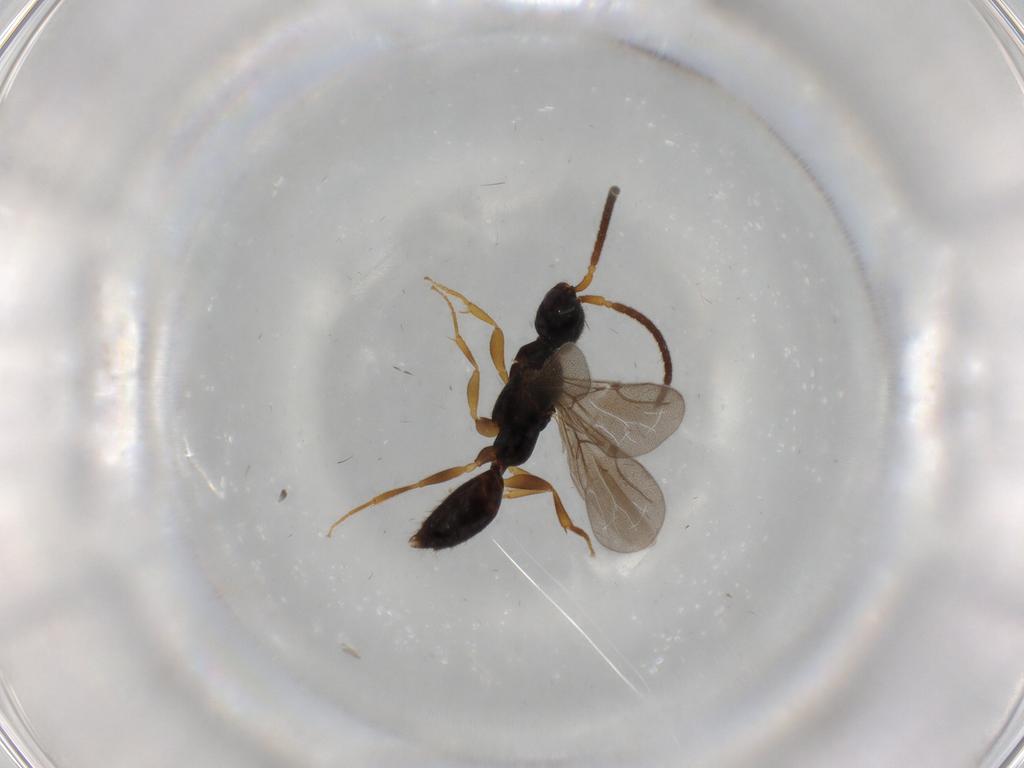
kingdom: Animalia
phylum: Arthropoda
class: Insecta
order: Hymenoptera
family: Bethylidae
